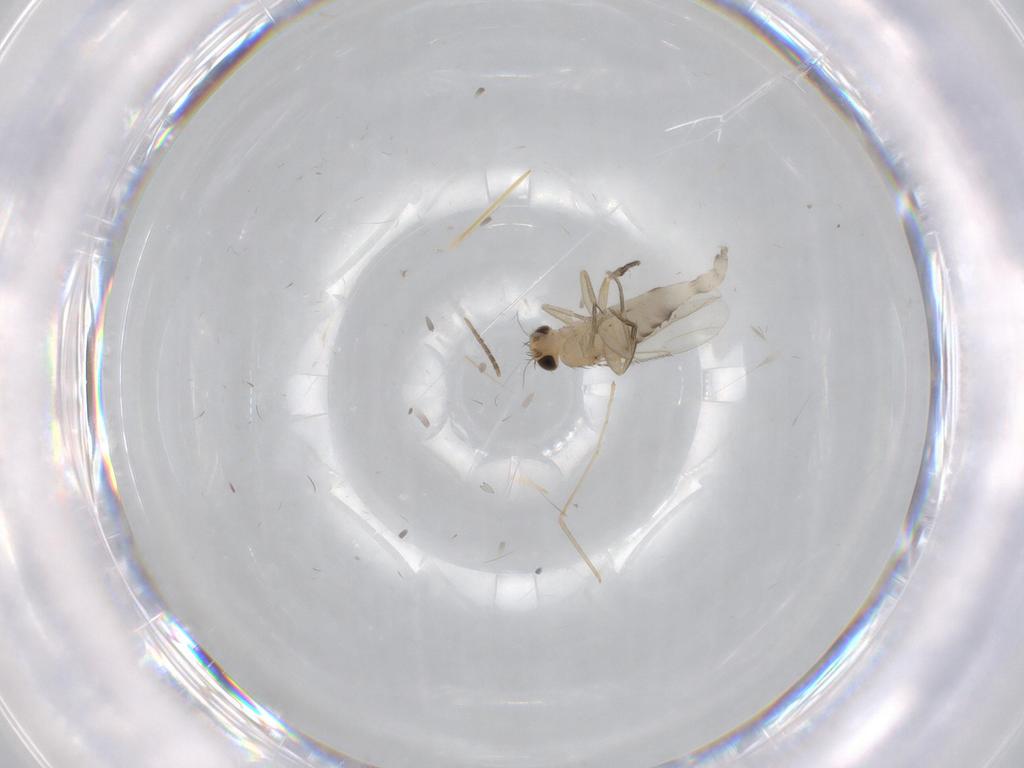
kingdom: Animalia
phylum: Arthropoda
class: Insecta
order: Diptera
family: Phoridae
